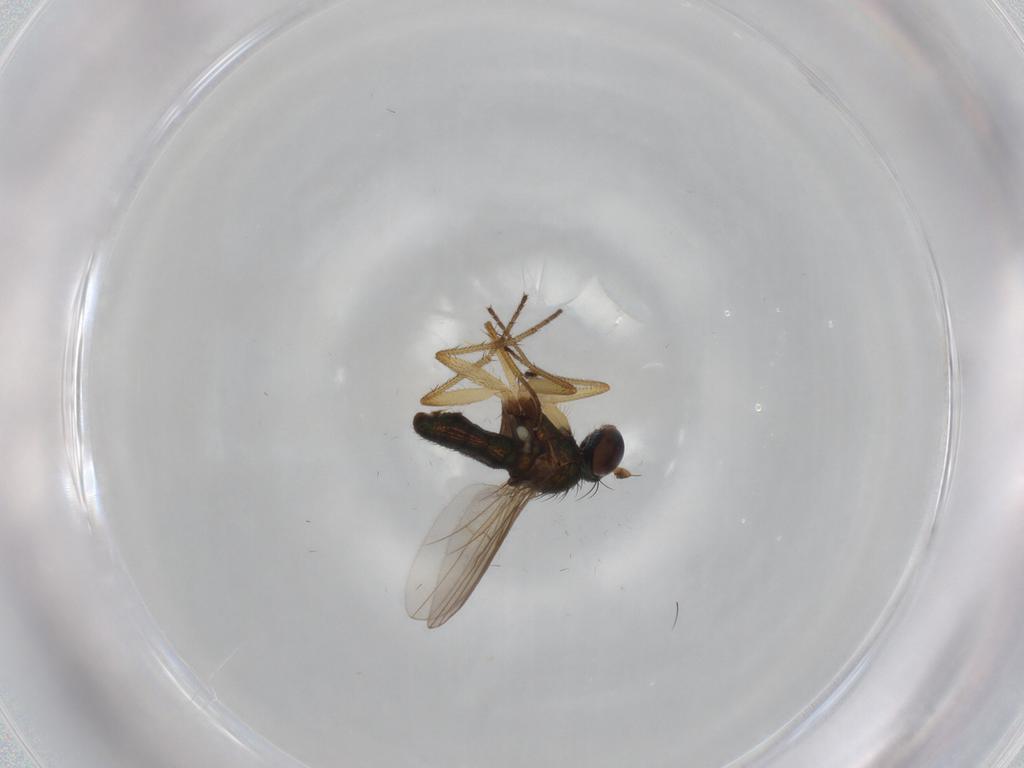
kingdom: Animalia
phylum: Arthropoda
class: Insecta
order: Diptera
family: Dolichopodidae
